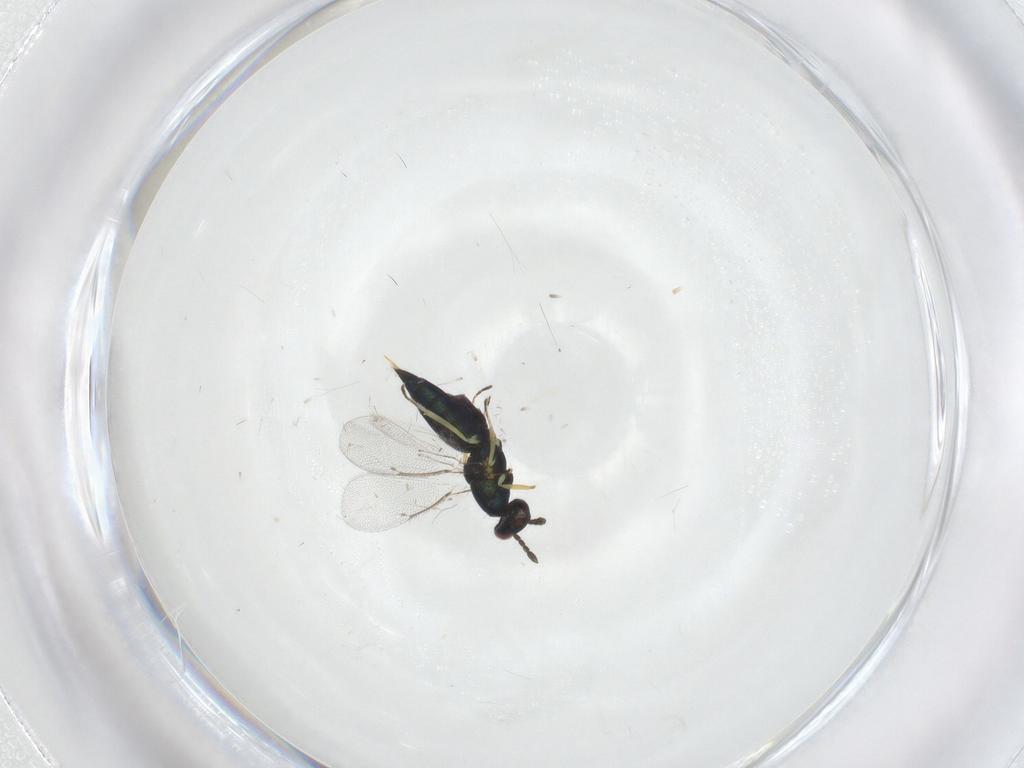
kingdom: Animalia
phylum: Arthropoda
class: Insecta
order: Hymenoptera
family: Eulophidae
